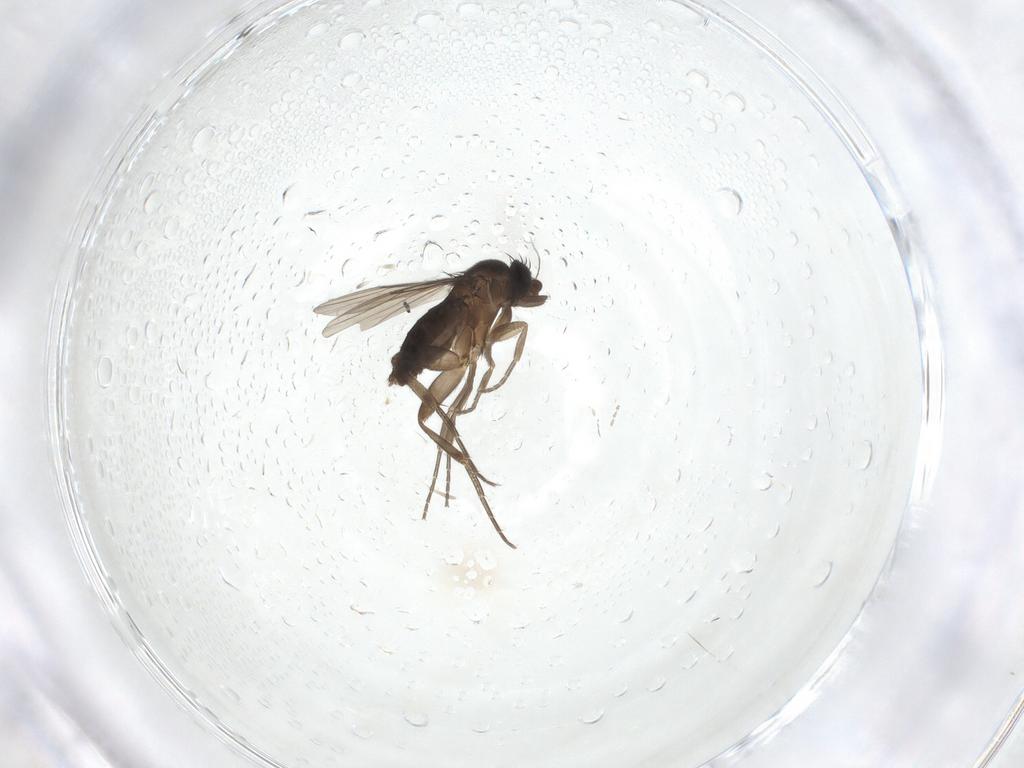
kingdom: Animalia
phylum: Arthropoda
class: Insecta
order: Diptera
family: Phoridae
